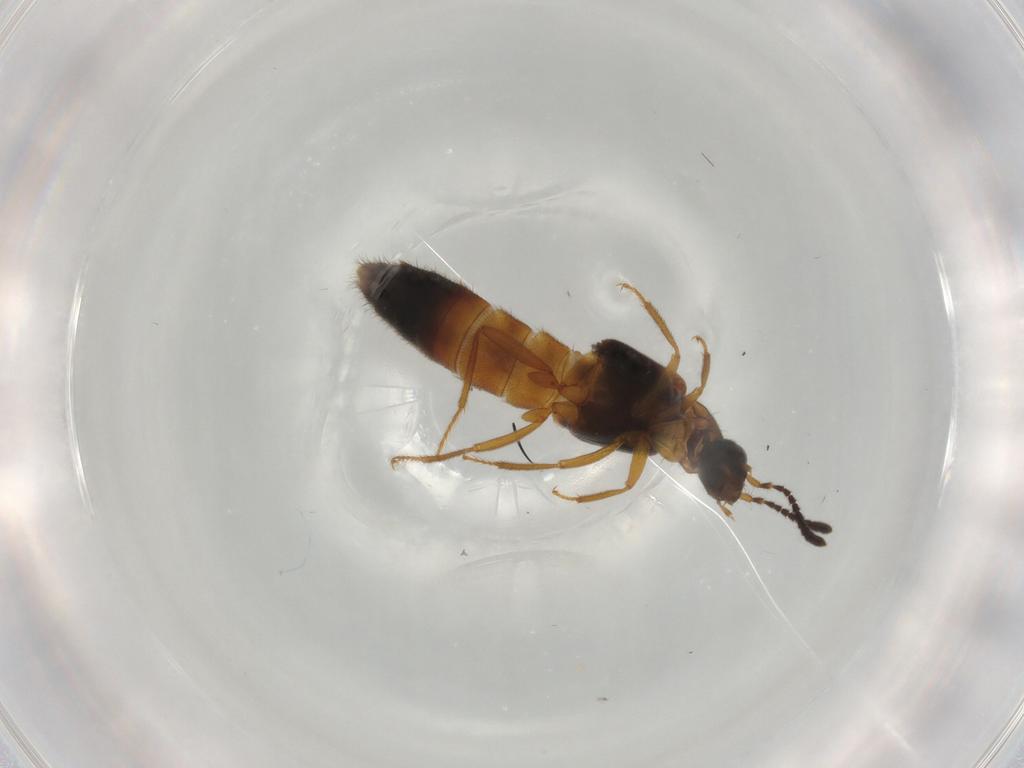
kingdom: Animalia
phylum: Arthropoda
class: Insecta
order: Coleoptera
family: Staphylinidae
